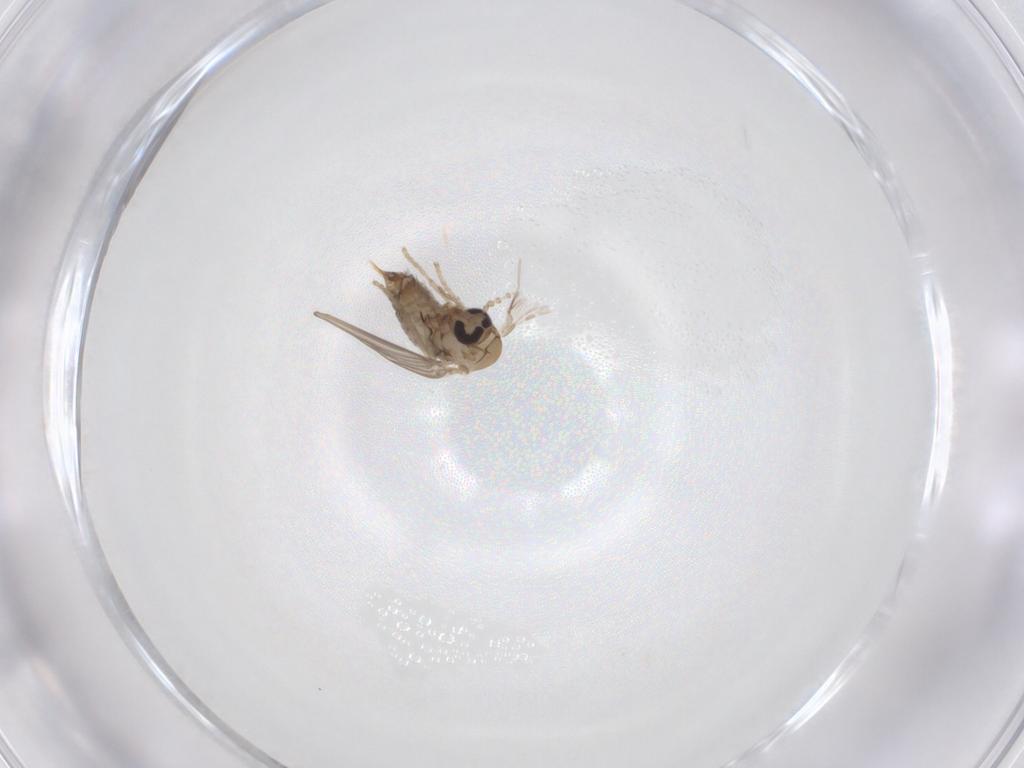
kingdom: Animalia
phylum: Arthropoda
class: Insecta
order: Diptera
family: Psychodidae
